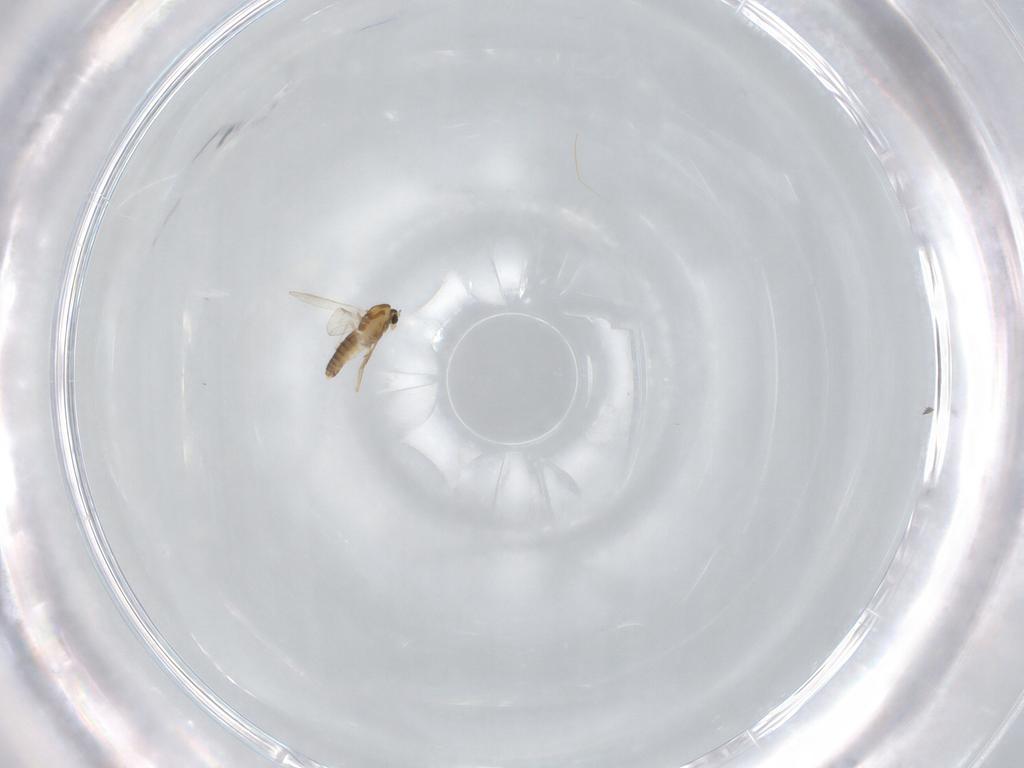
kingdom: Animalia
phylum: Arthropoda
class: Insecta
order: Diptera
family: Chironomidae
